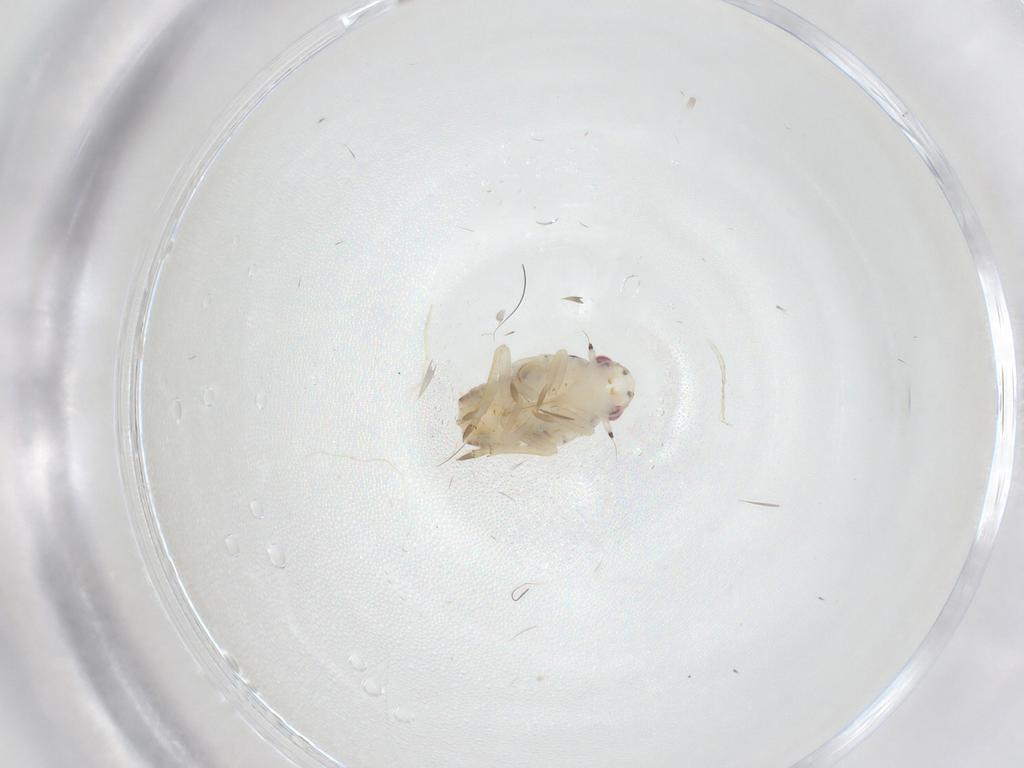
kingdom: Animalia
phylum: Arthropoda
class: Insecta
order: Hemiptera
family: Flatidae
